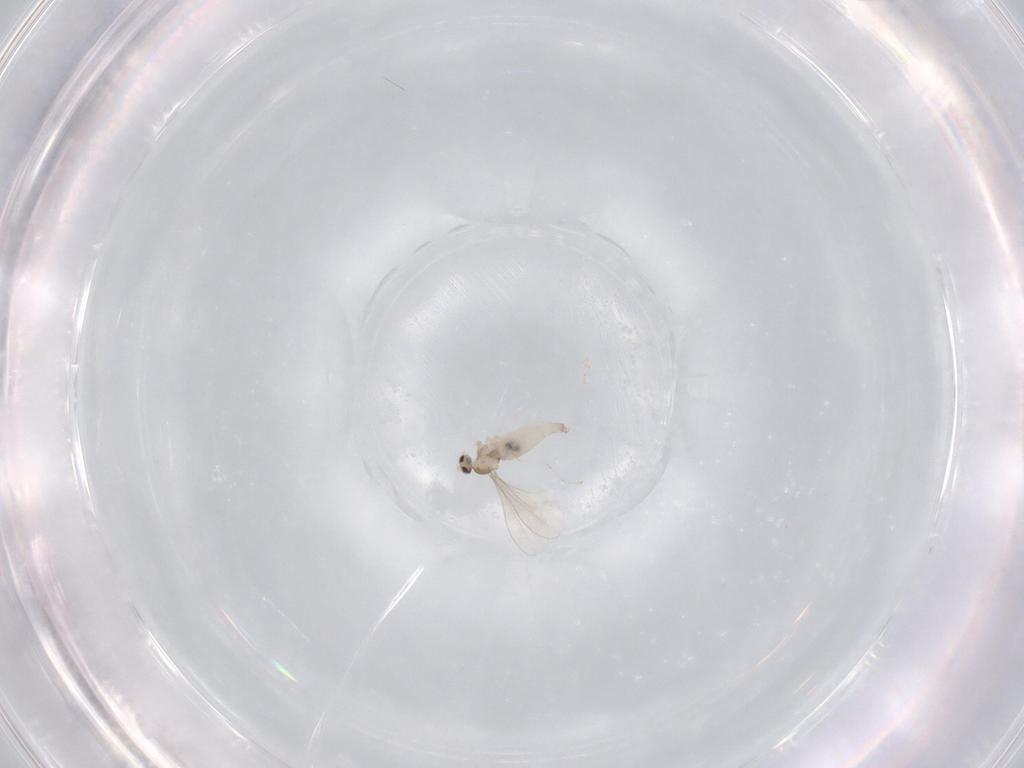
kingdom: Animalia
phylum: Arthropoda
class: Insecta
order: Diptera
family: Cecidomyiidae
